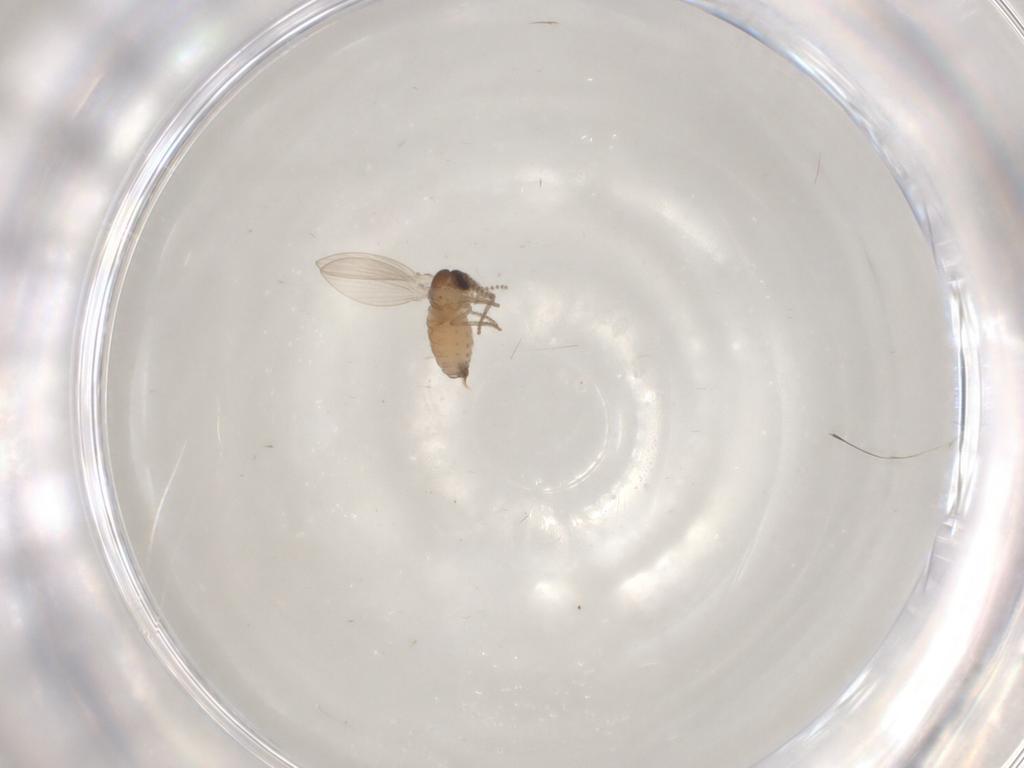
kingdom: Animalia
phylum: Arthropoda
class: Insecta
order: Diptera
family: Psychodidae
